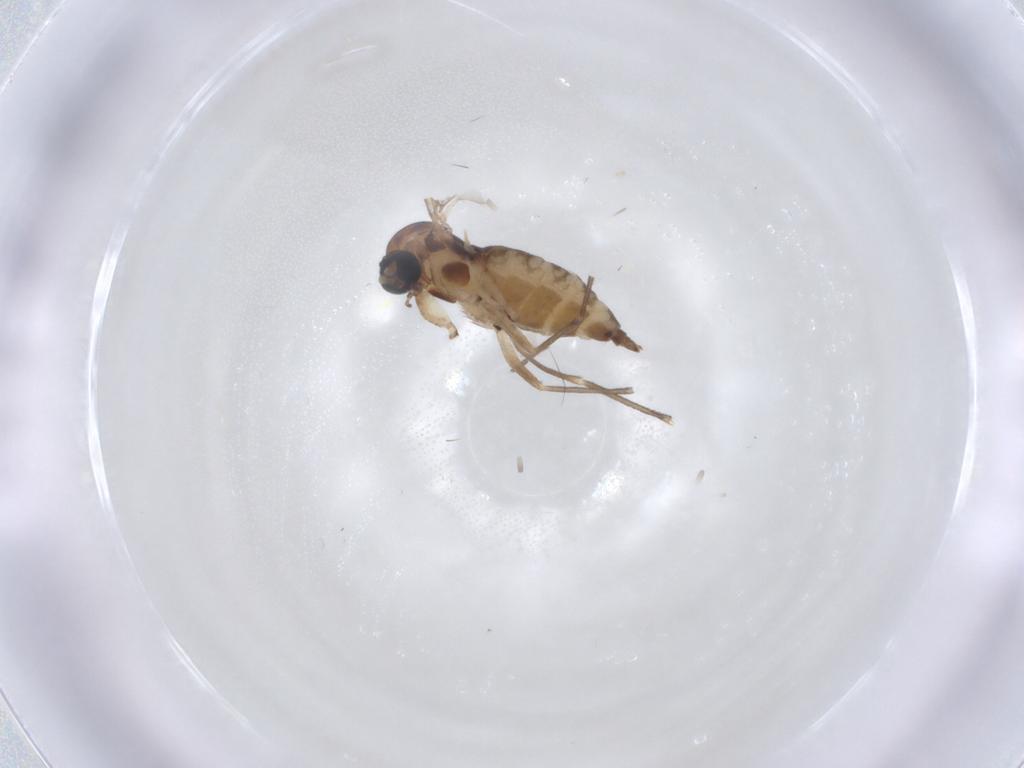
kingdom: Animalia
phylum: Arthropoda
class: Insecta
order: Diptera
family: Sciaridae
